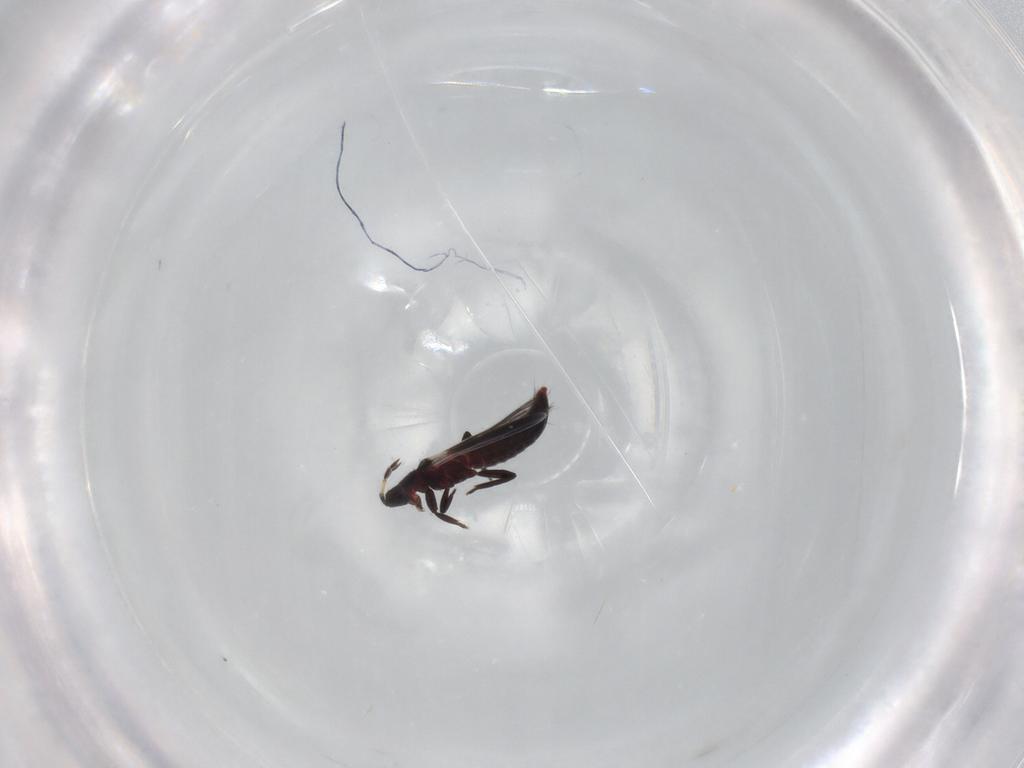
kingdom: Animalia
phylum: Arthropoda
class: Insecta
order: Thysanoptera
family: Aeolothripidae
